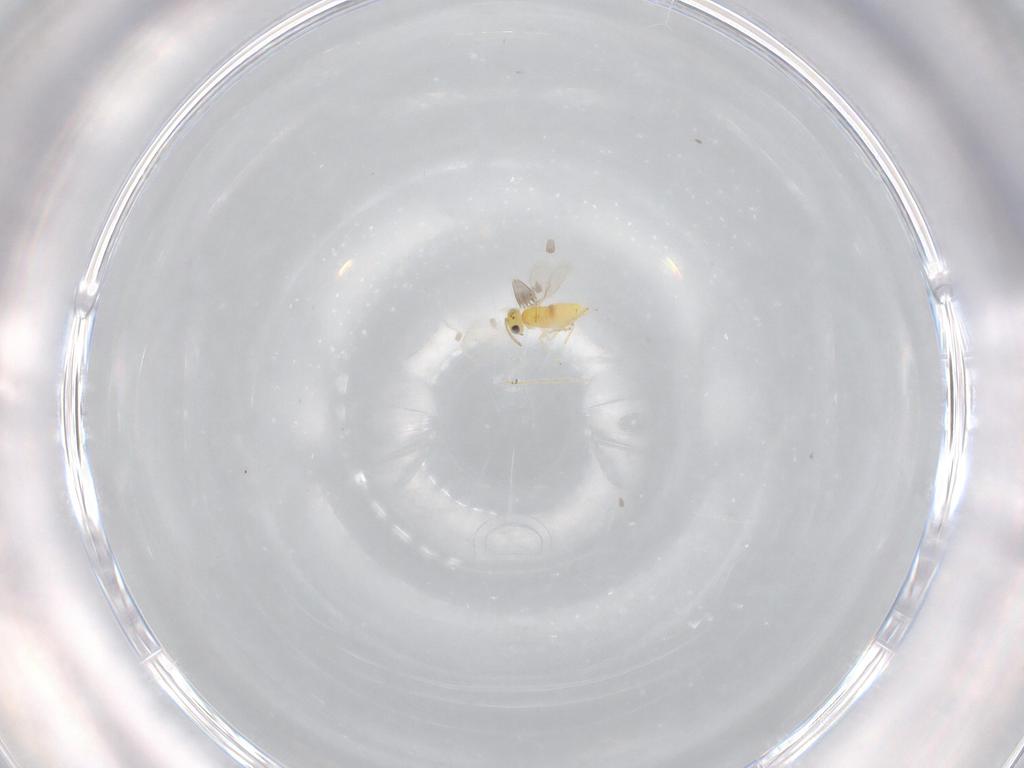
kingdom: Animalia
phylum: Arthropoda
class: Insecta
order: Hymenoptera
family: Aphelinidae
